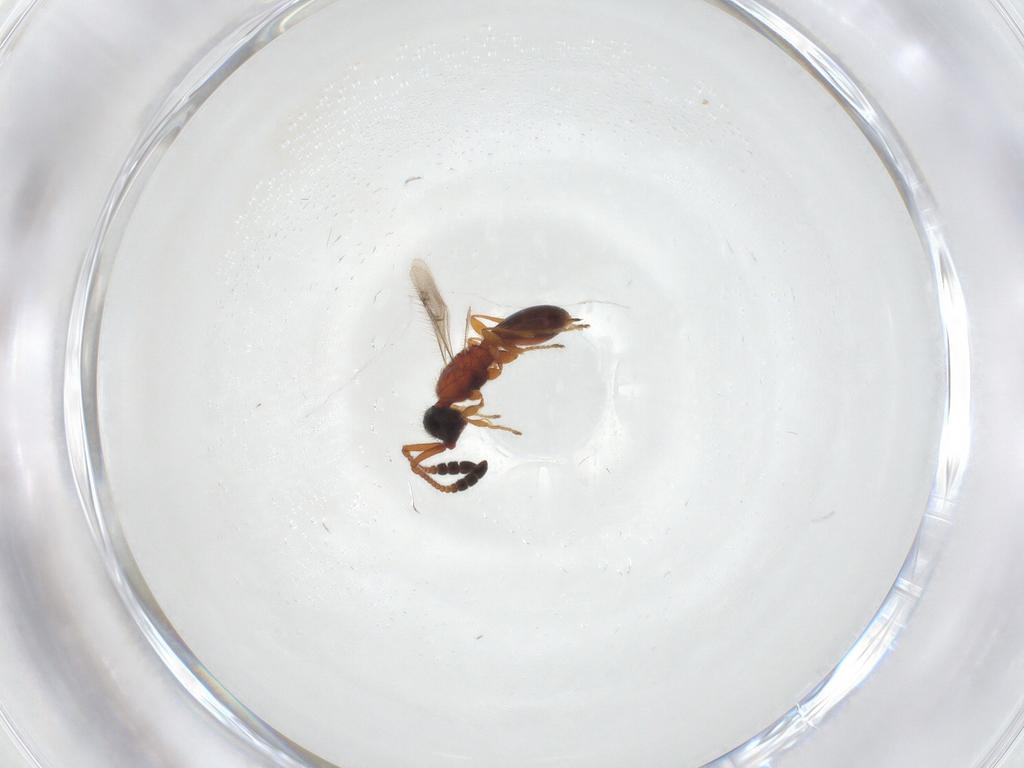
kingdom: Animalia
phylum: Arthropoda
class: Insecta
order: Hymenoptera
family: Diapriidae
